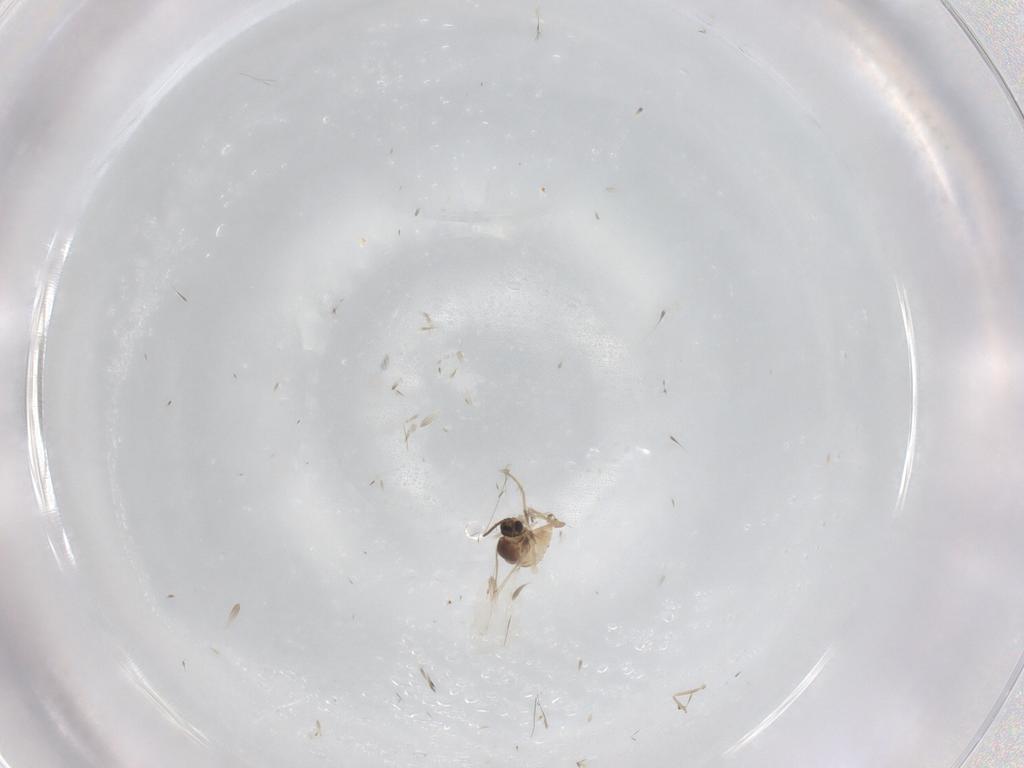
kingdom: Animalia
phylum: Arthropoda
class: Insecta
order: Diptera
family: Cecidomyiidae
